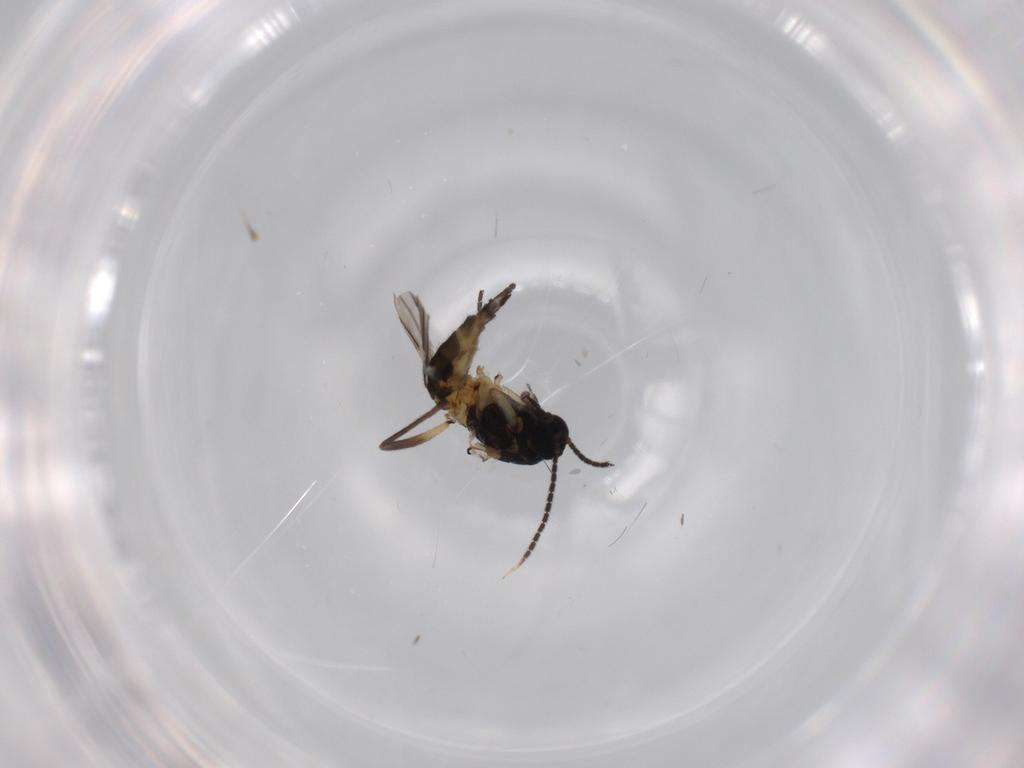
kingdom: Animalia
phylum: Arthropoda
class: Insecta
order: Diptera
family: Sciaridae
